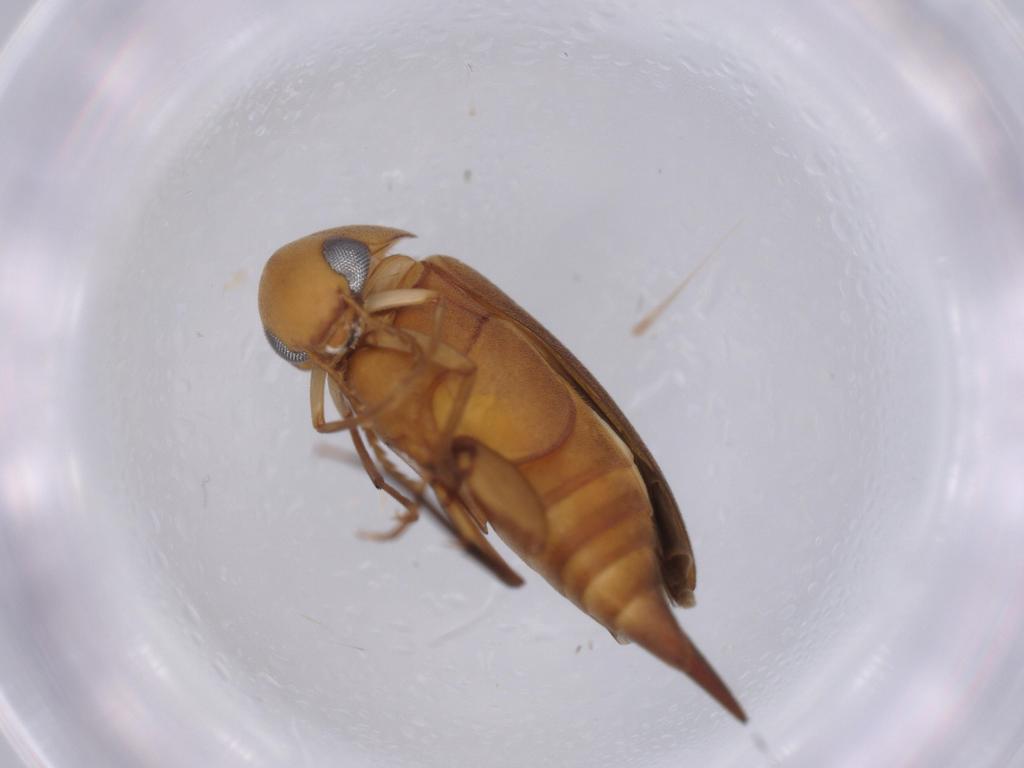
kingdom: Animalia
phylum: Arthropoda
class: Insecta
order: Coleoptera
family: Mordellidae
